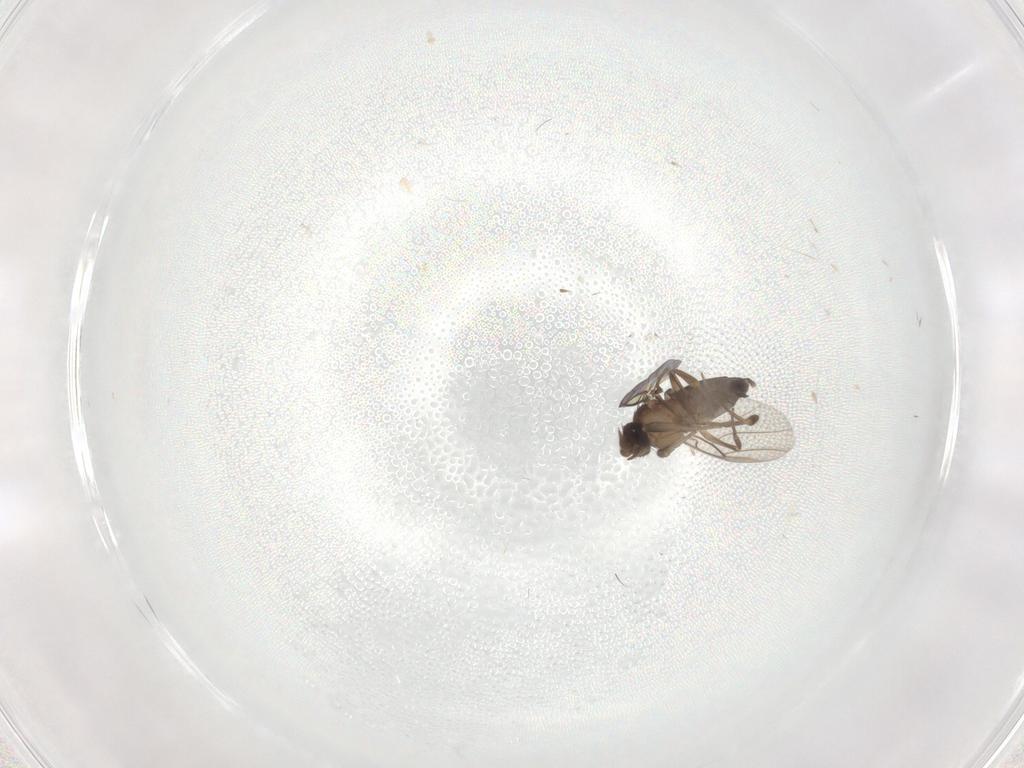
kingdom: Animalia
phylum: Arthropoda
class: Insecta
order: Diptera
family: Phoridae
